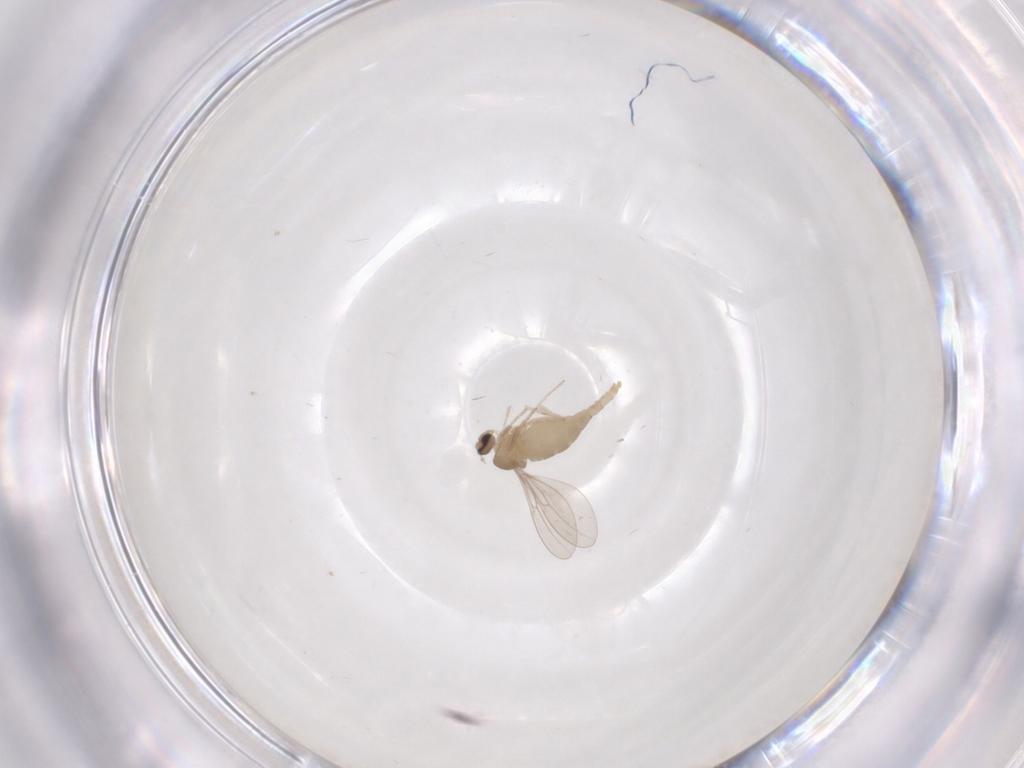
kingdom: Animalia
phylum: Arthropoda
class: Insecta
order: Diptera
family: Cecidomyiidae
